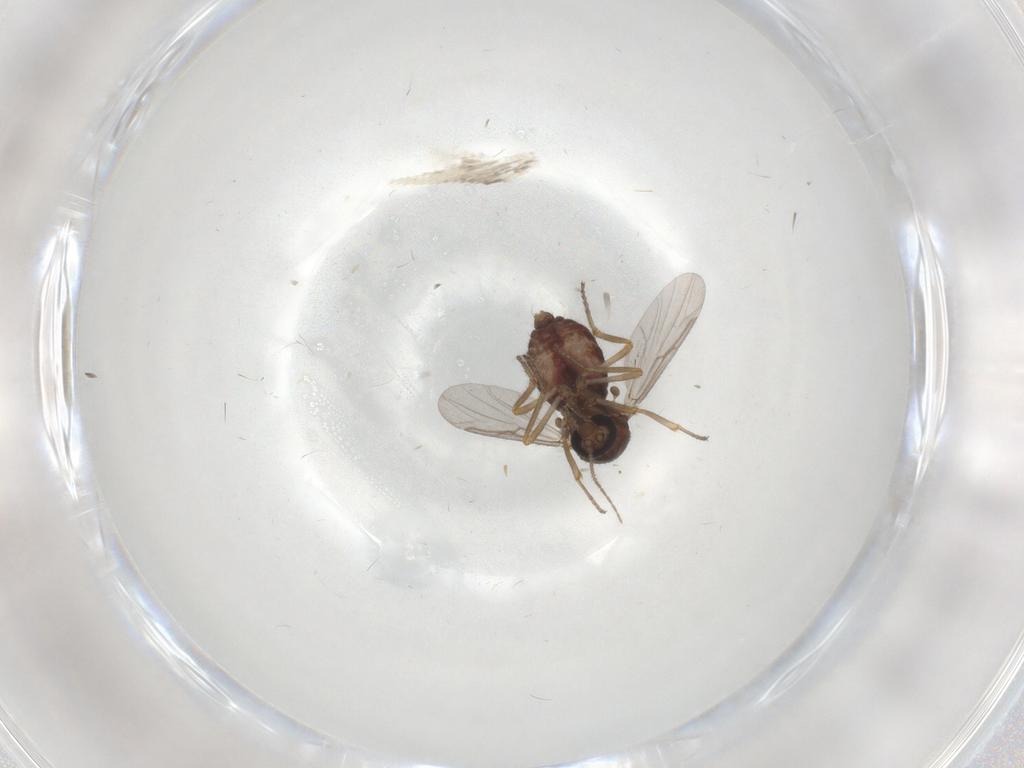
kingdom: Animalia
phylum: Arthropoda
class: Insecta
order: Diptera
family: Ceratopogonidae
